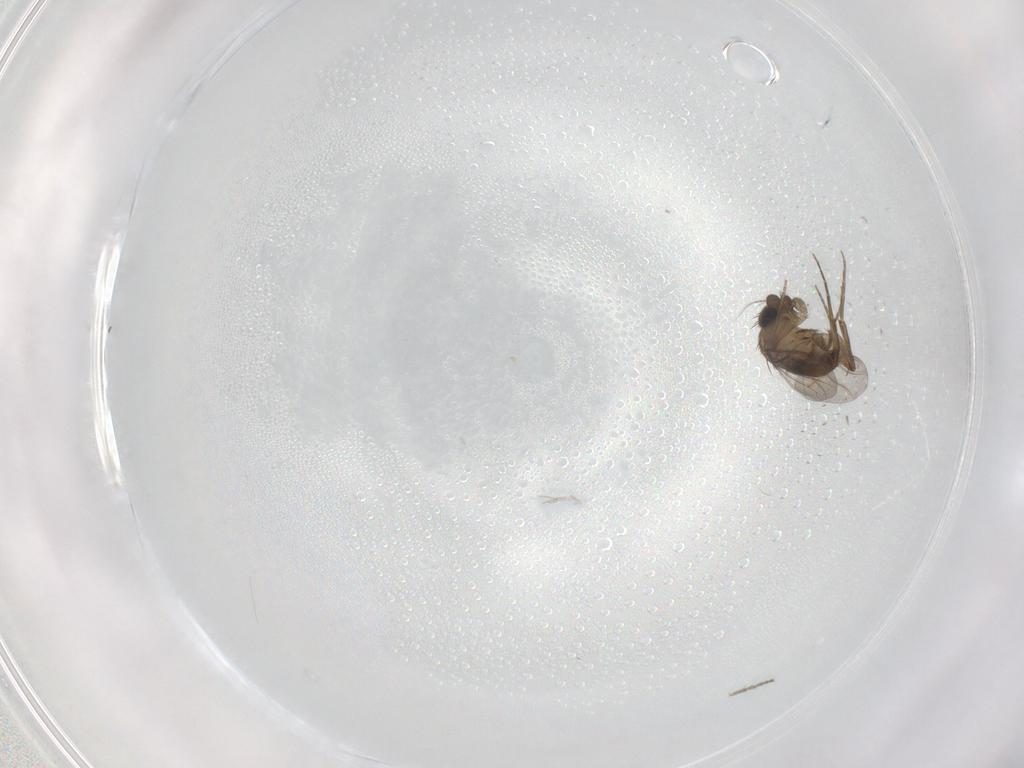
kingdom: Animalia
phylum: Arthropoda
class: Insecta
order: Diptera
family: Phoridae
